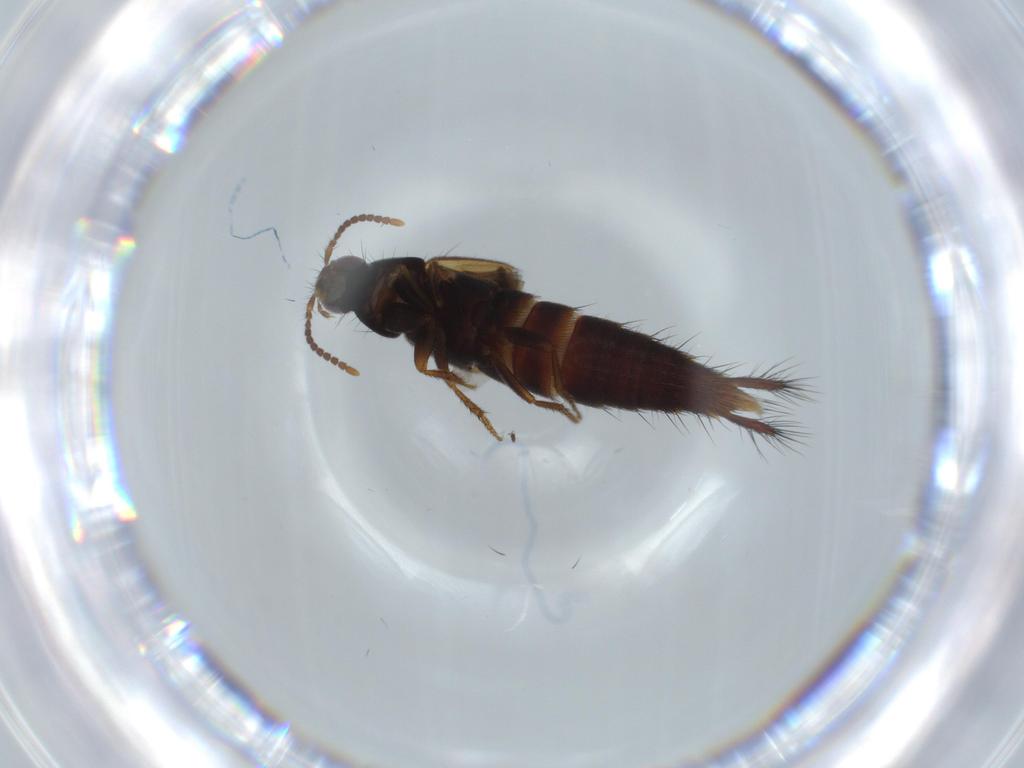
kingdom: Animalia
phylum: Arthropoda
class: Insecta
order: Coleoptera
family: Staphylinidae
